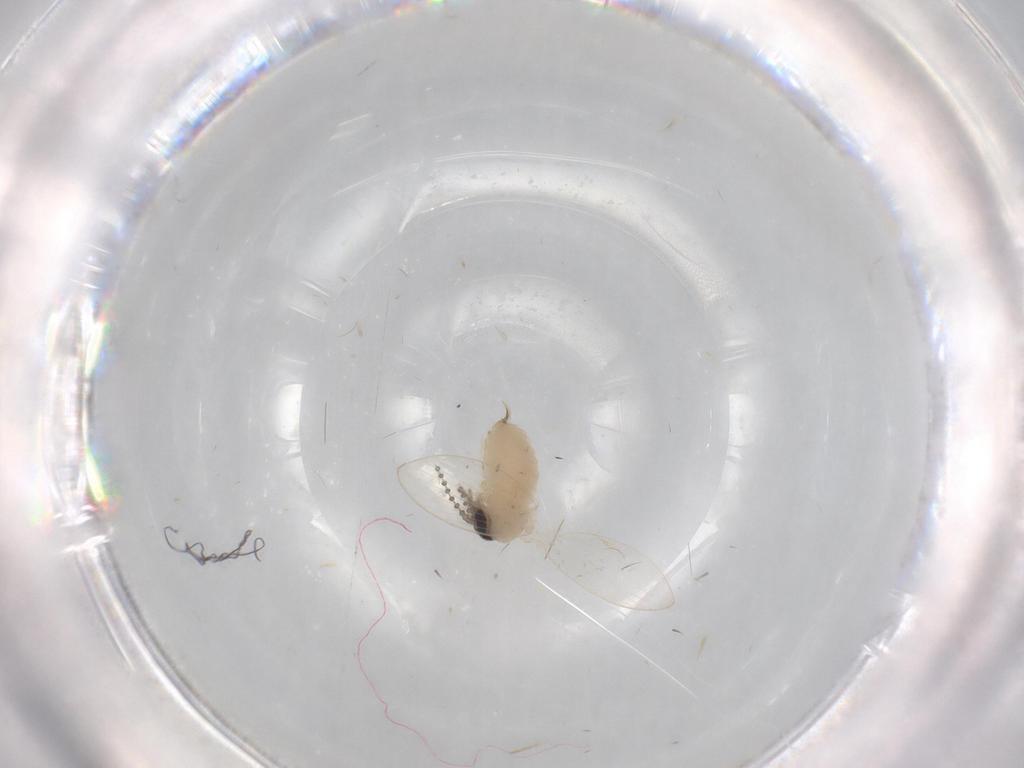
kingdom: Animalia
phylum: Arthropoda
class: Insecta
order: Diptera
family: Psychodidae
